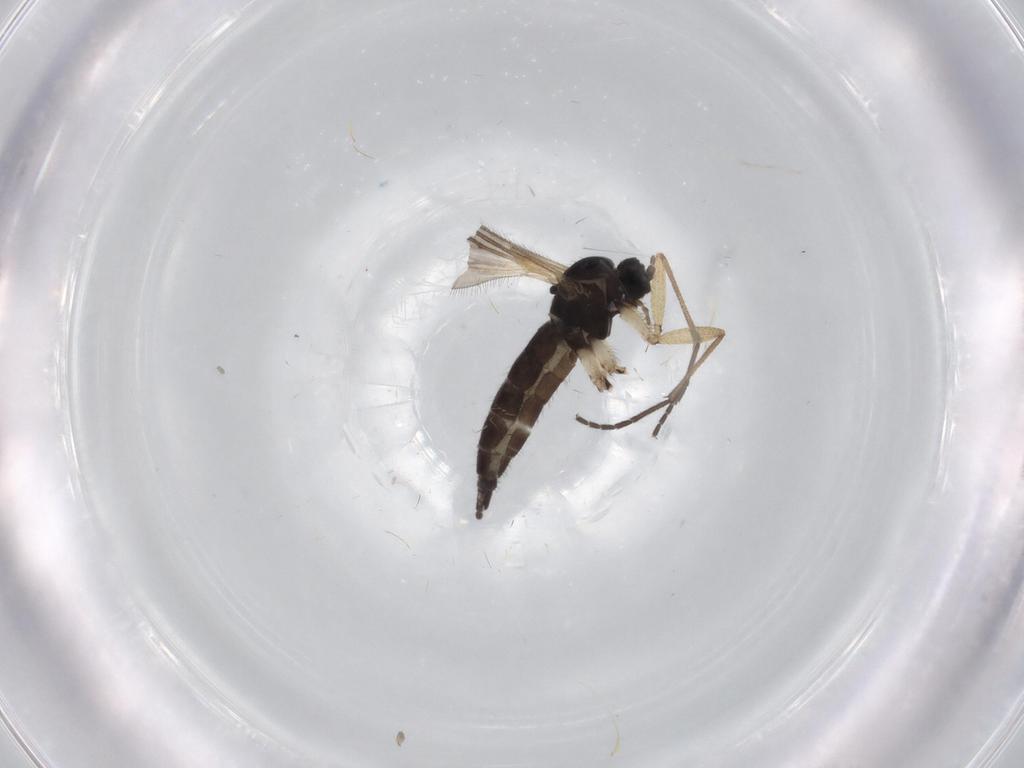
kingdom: Animalia
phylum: Arthropoda
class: Insecta
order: Diptera
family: Sciaridae
